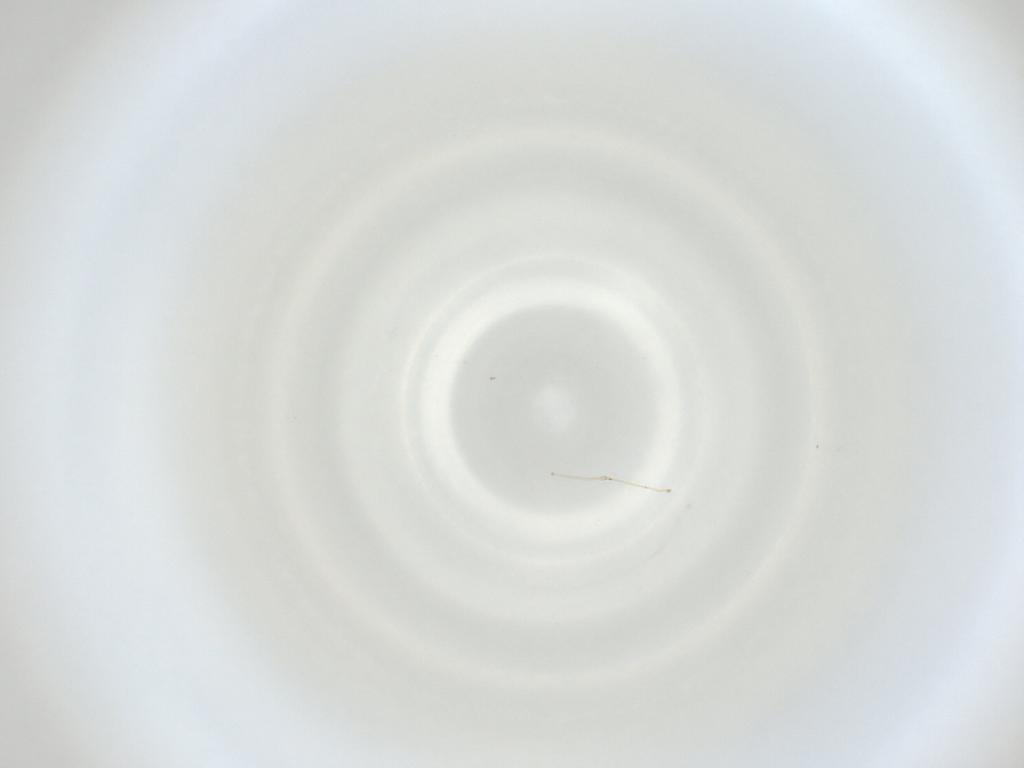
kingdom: Animalia
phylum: Arthropoda
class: Insecta
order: Diptera
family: Cecidomyiidae
